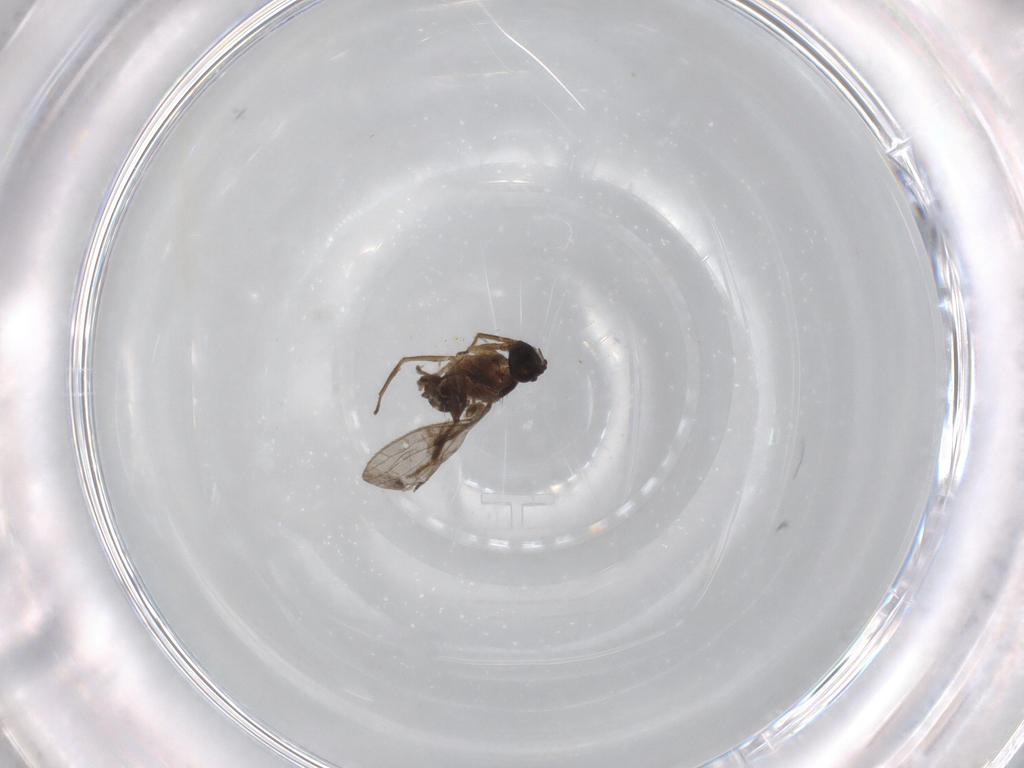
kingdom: Animalia
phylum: Arthropoda
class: Insecta
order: Diptera
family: Empididae
